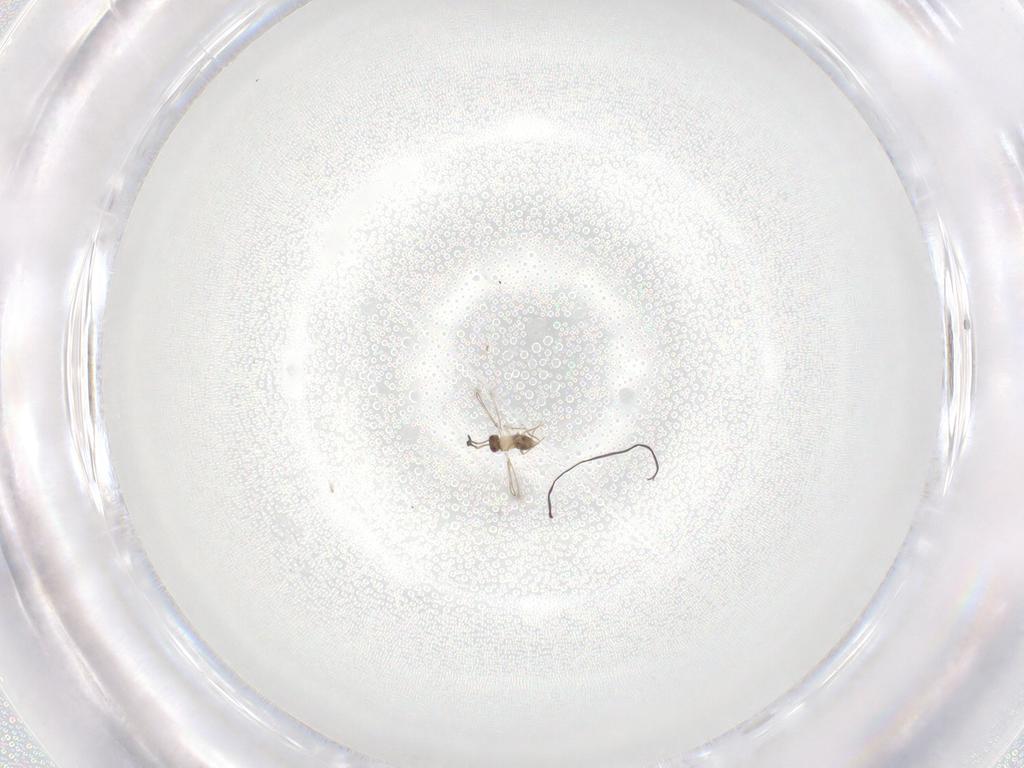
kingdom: Animalia
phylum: Arthropoda
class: Insecta
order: Hymenoptera
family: Mymaridae
